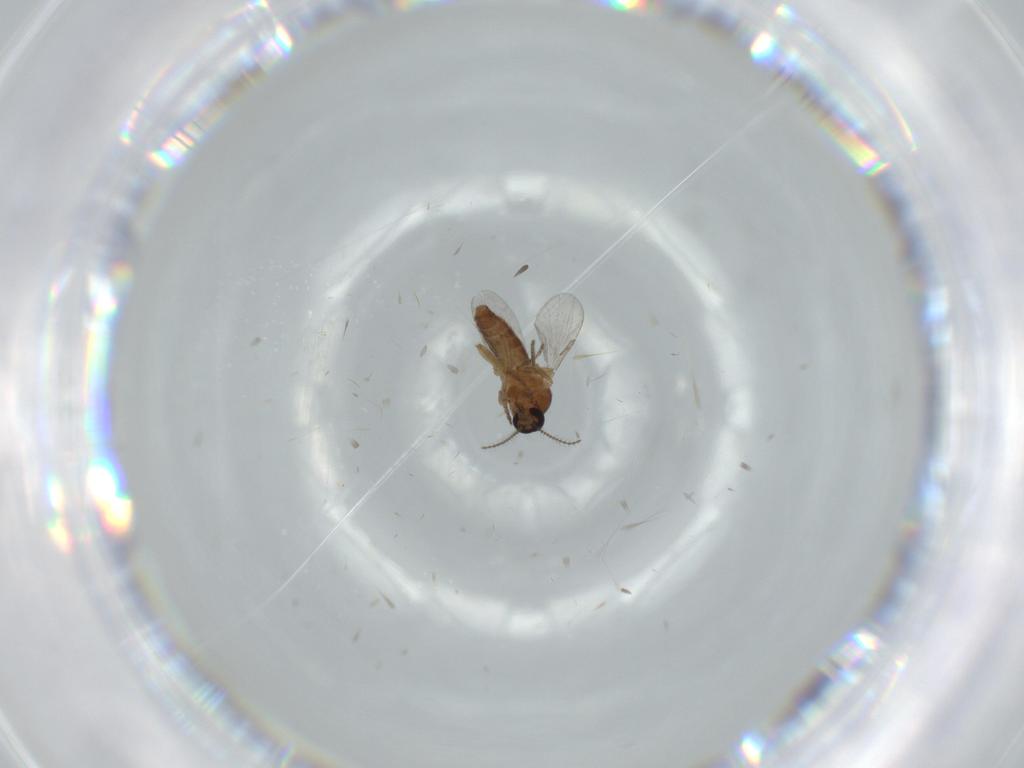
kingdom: Animalia
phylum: Arthropoda
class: Insecta
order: Diptera
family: Ceratopogonidae
